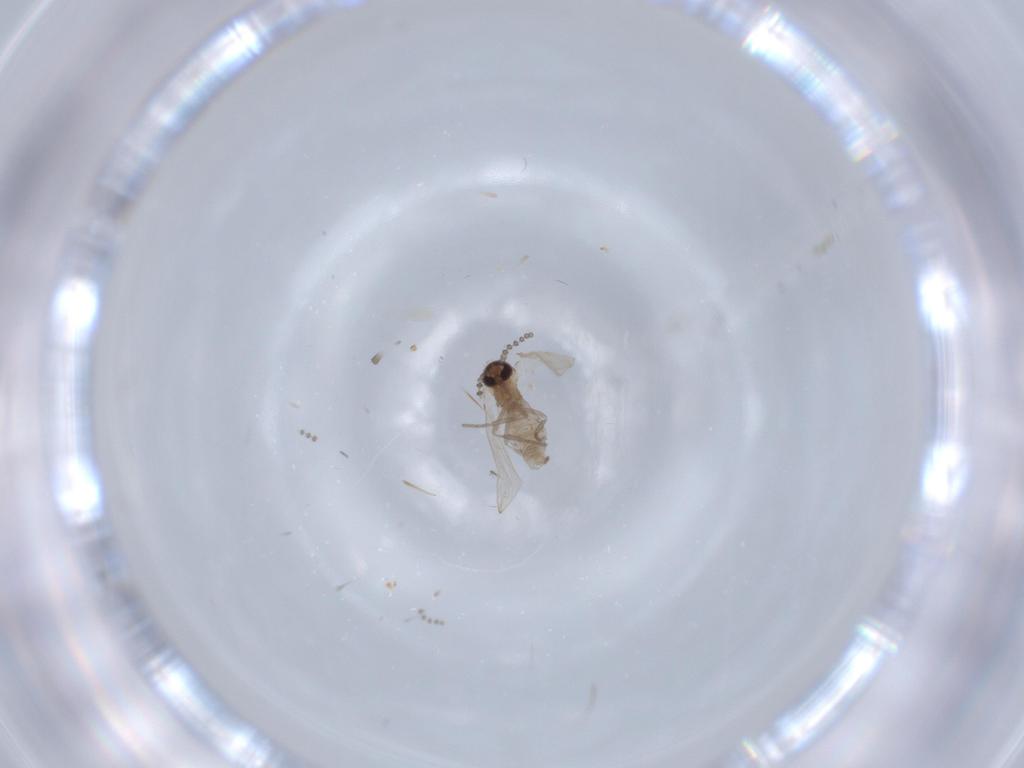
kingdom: Animalia
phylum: Arthropoda
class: Insecta
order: Diptera
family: Psychodidae
